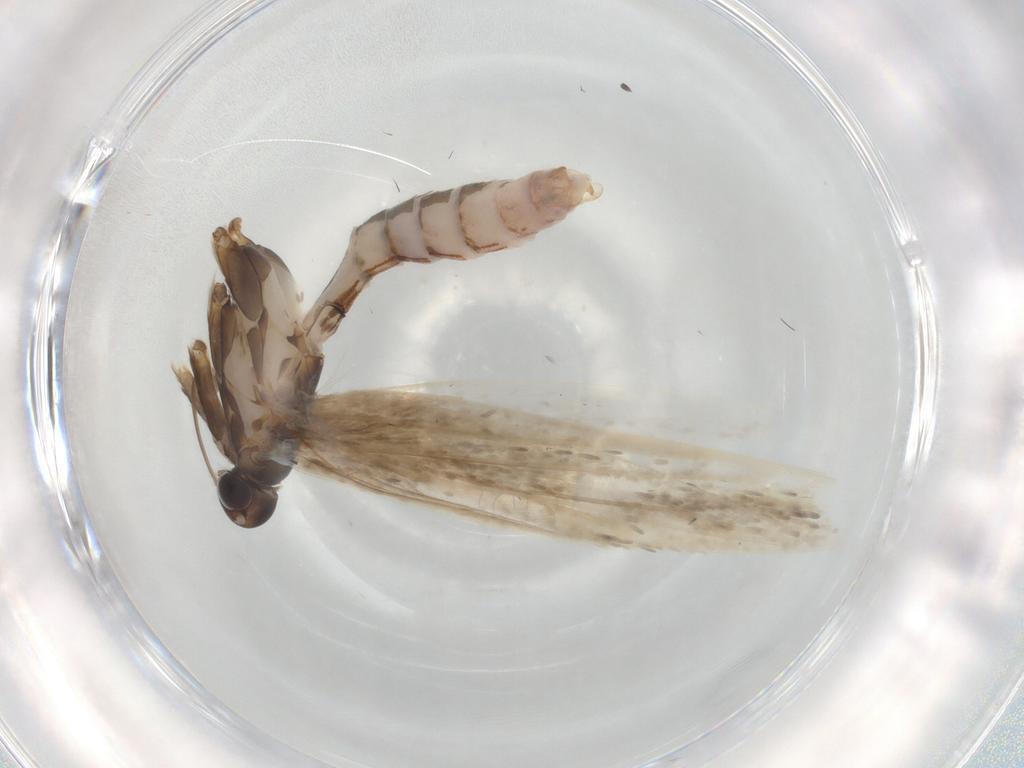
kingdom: Animalia
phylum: Arthropoda
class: Insecta
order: Lepidoptera
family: Coleophoridae
